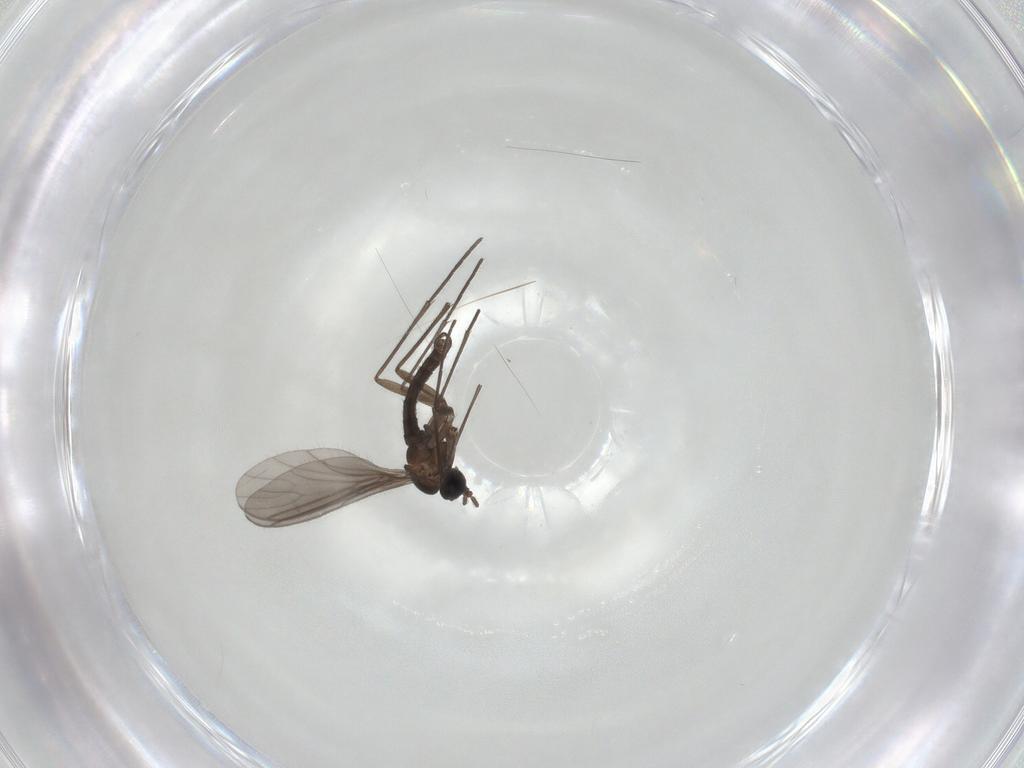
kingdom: Animalia
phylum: Arthropoda
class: Insecta
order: Diptera
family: Sciaridae
